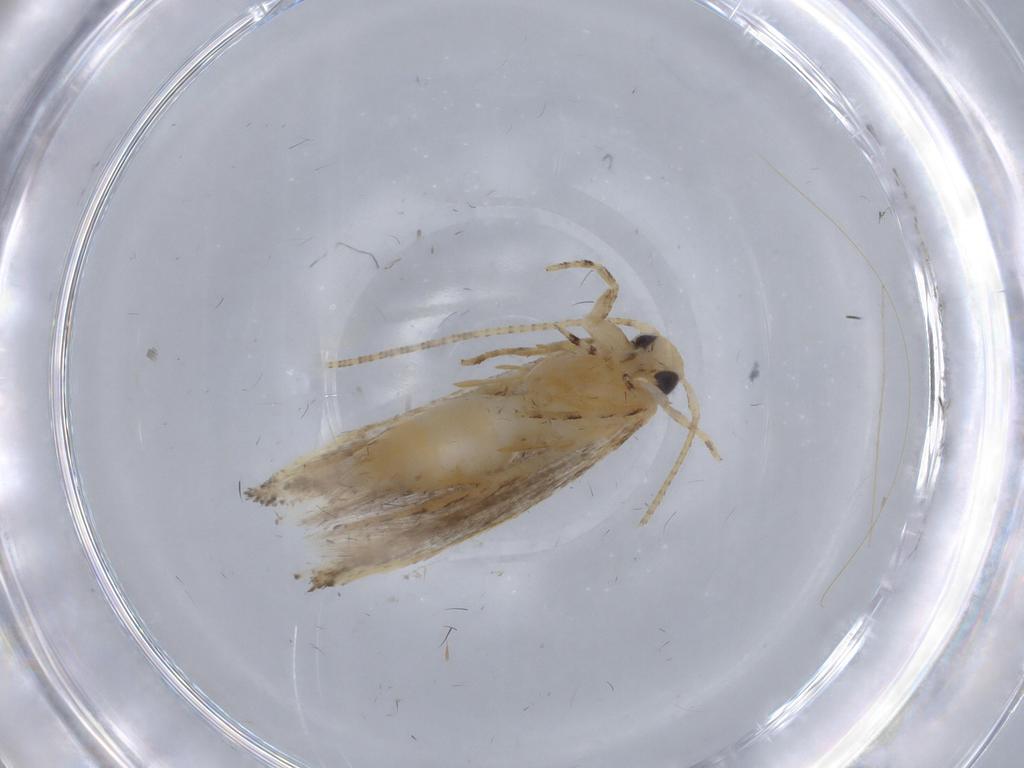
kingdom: Animalia
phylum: Arthropoda
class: Insecta
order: Lepidoptera
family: Gelechiidae
